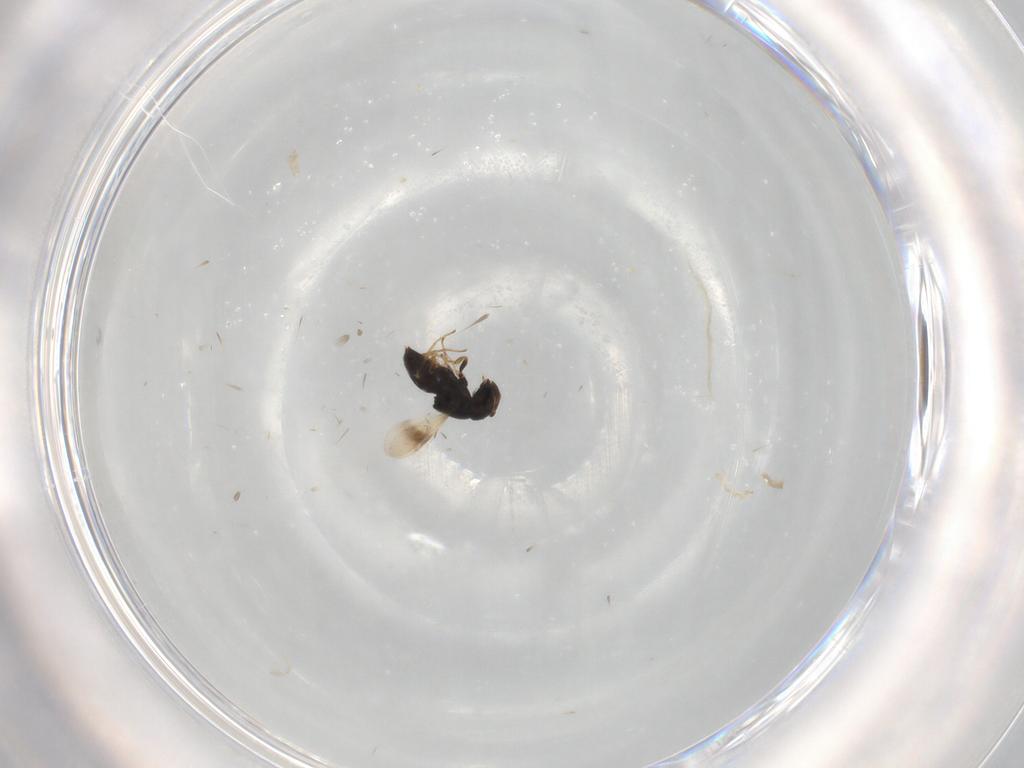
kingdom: Animalia
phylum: Arthropoda
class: Insecta
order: Hymenoptera
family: Scelionidae
